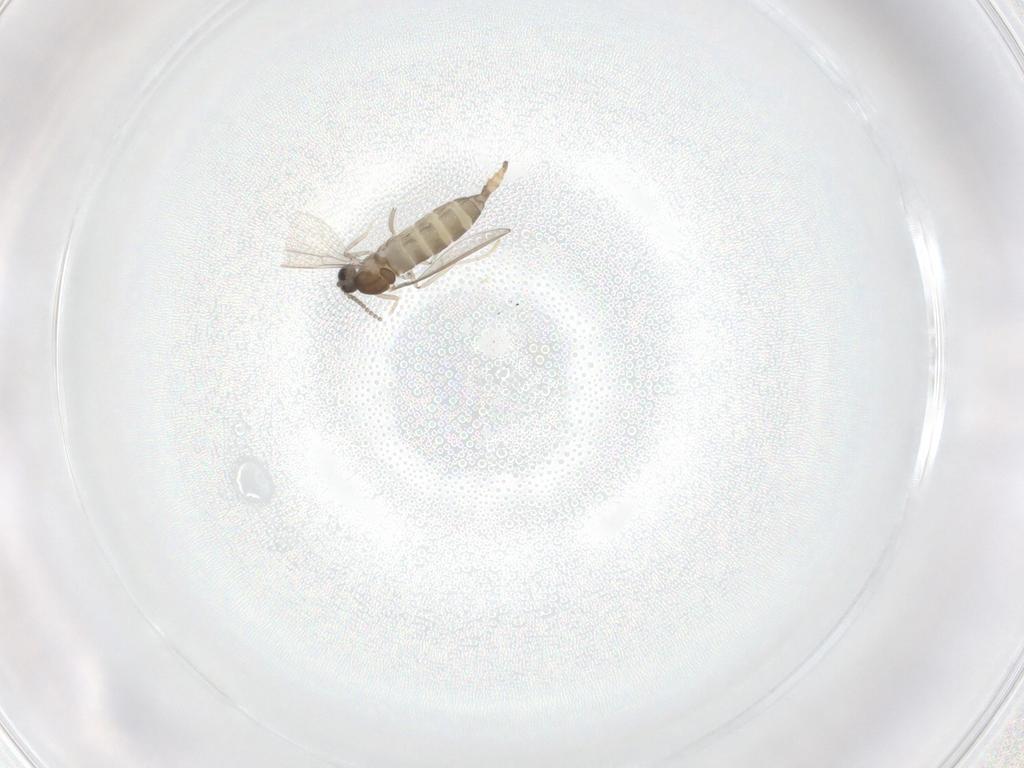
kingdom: Animalia
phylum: Arthropoda
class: Insecta
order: Diptera
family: Cecidomyiidae
